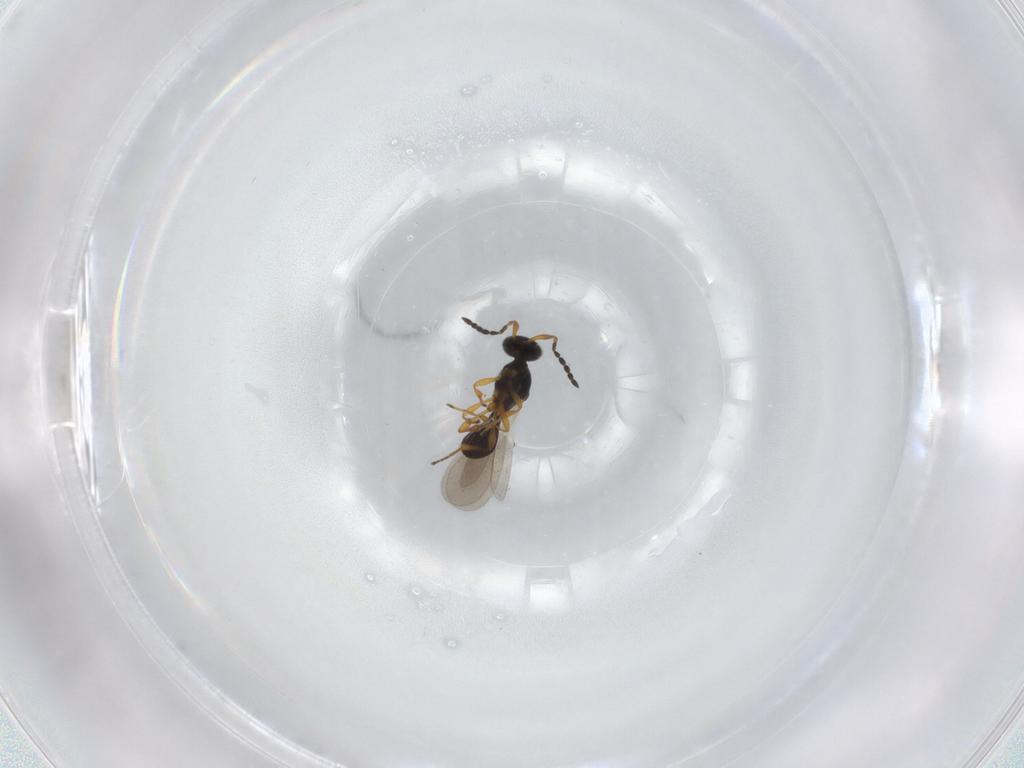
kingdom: Animalia
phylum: Arthropoda
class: Insecta
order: Hymenoptera
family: Platygastridae
